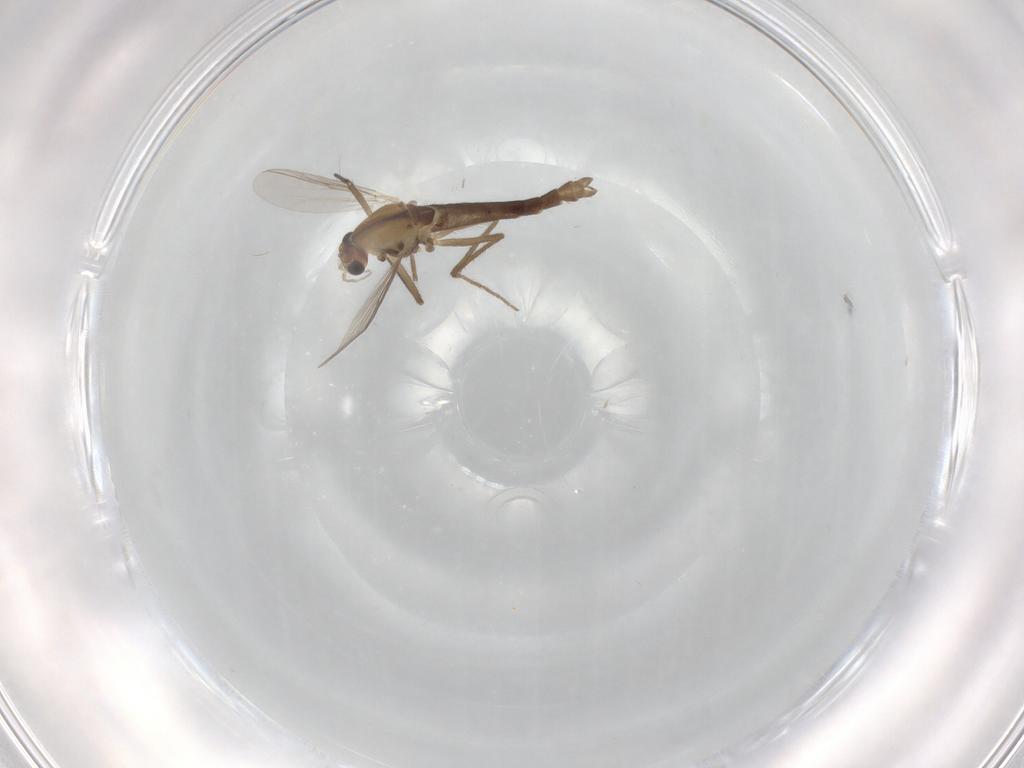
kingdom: Animalia
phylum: Arthropoda
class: Insecta
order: Diptera
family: Chironomidae
